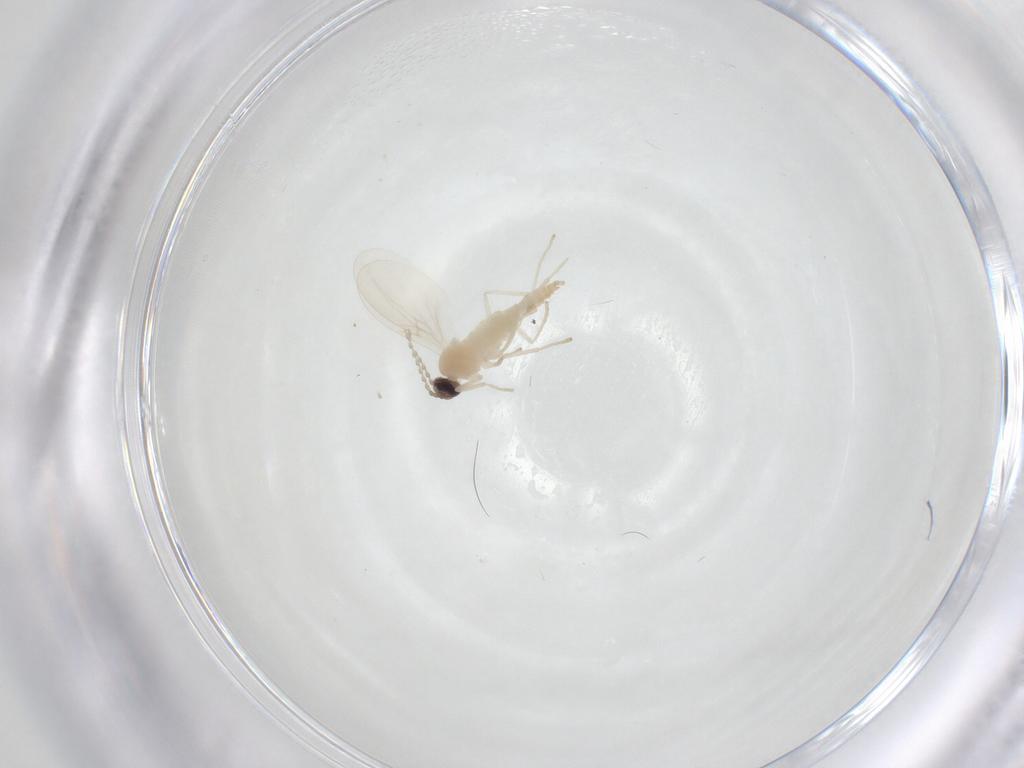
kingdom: Animalia
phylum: Arthropoda
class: Insecta
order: Diptera
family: Cecidomyiidae
